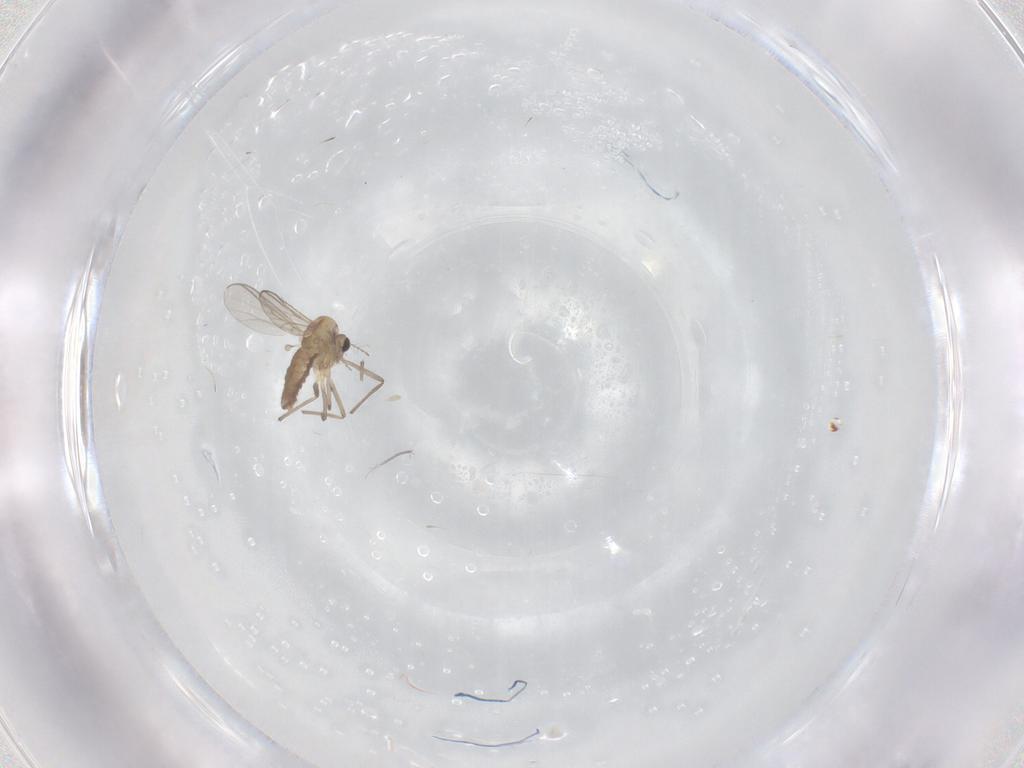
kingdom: Animalia
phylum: Arthropoda
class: Insecta
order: Diptera
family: Chironomidae
